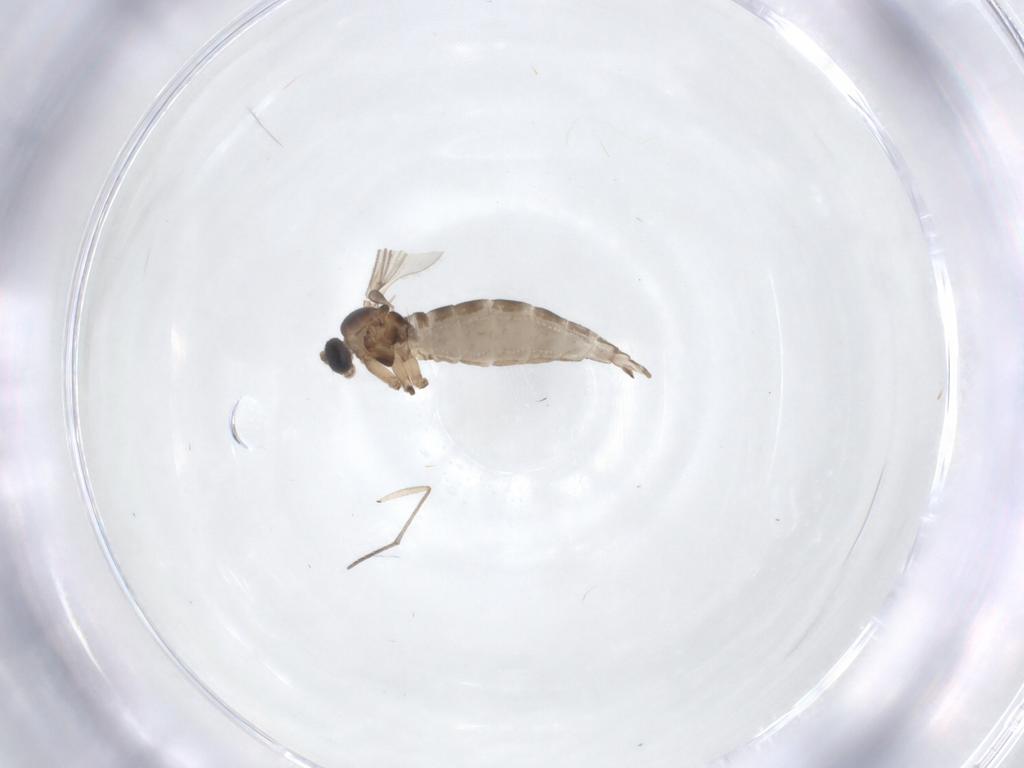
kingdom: Animalia
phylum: Arthropoda
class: Insecta
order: Diptera
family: Sciaridae
